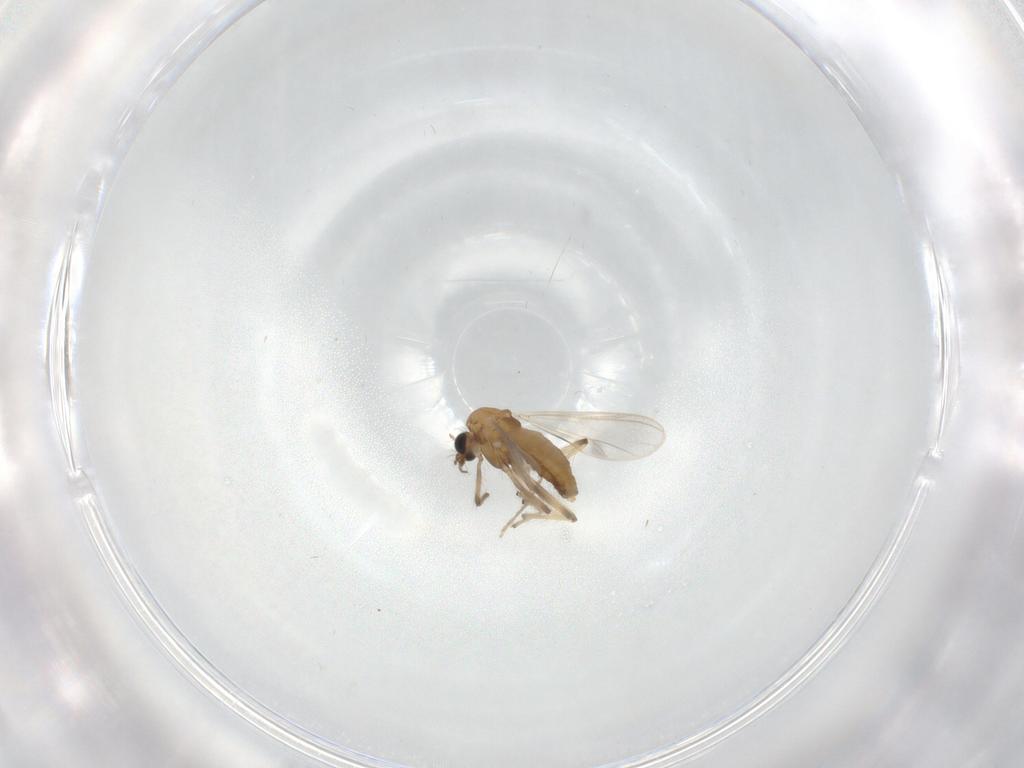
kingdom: Animalia
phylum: Arthropoda
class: Insecta
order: Diptera
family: Chironomidae
